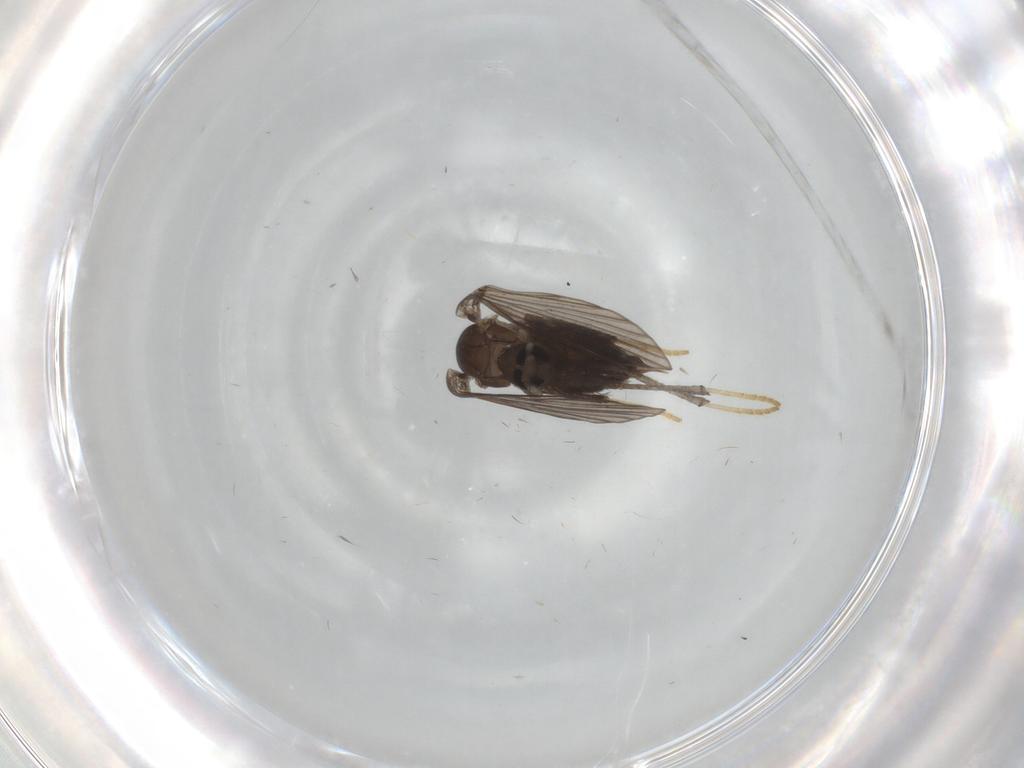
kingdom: Animalia
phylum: Arthropoda
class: Insecta
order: Diptera
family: Psychodidae
